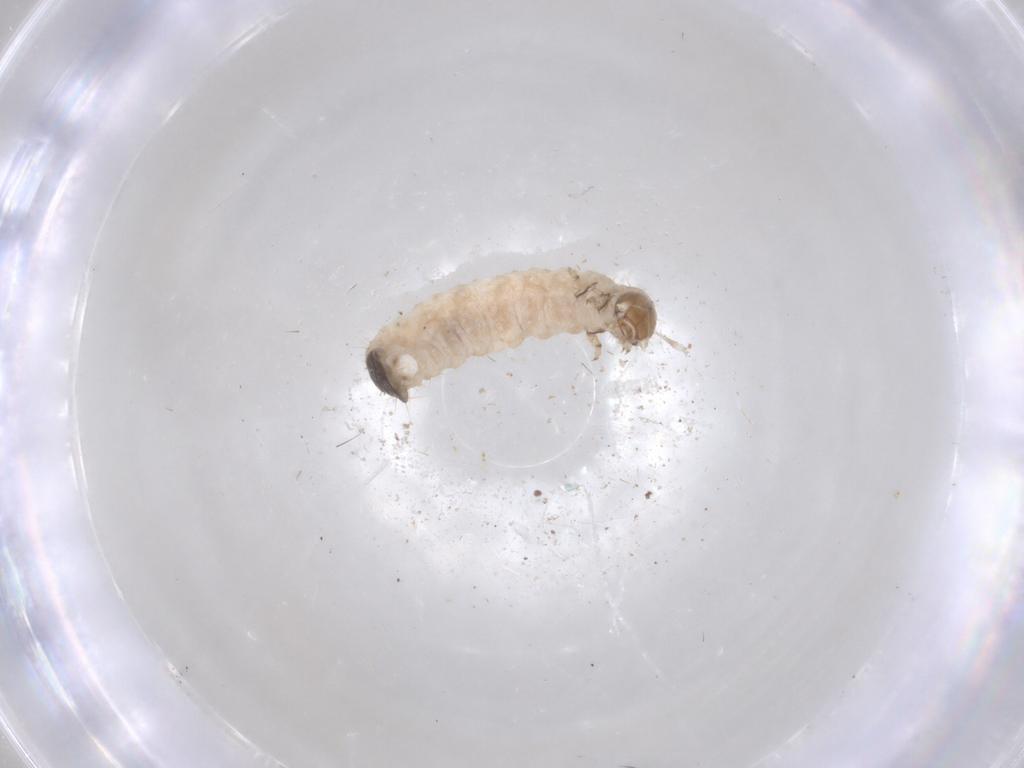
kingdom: Animalia
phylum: Arthropoda
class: Insecta
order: Coleoptera
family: Chrysomelidae
